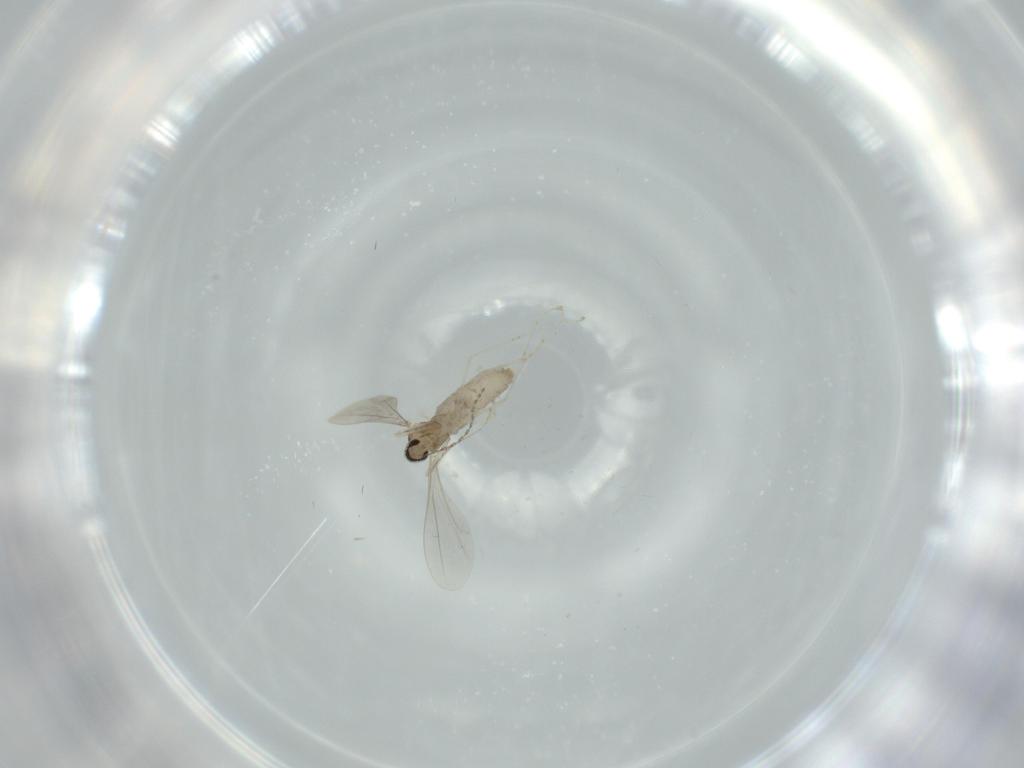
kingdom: Animalia
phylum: Arthropoda
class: Insecta
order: Diptera
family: Cecidomyiidae
